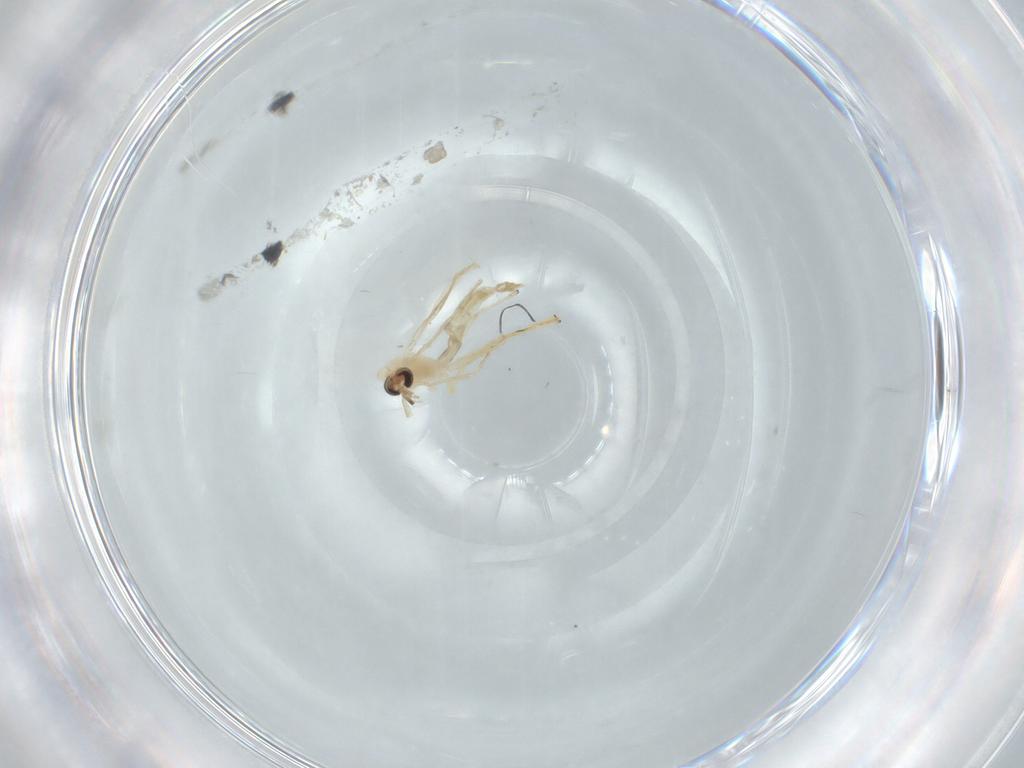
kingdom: Animalia
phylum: Arthropoda
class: Insecta
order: Diptera
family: Chironomidae
